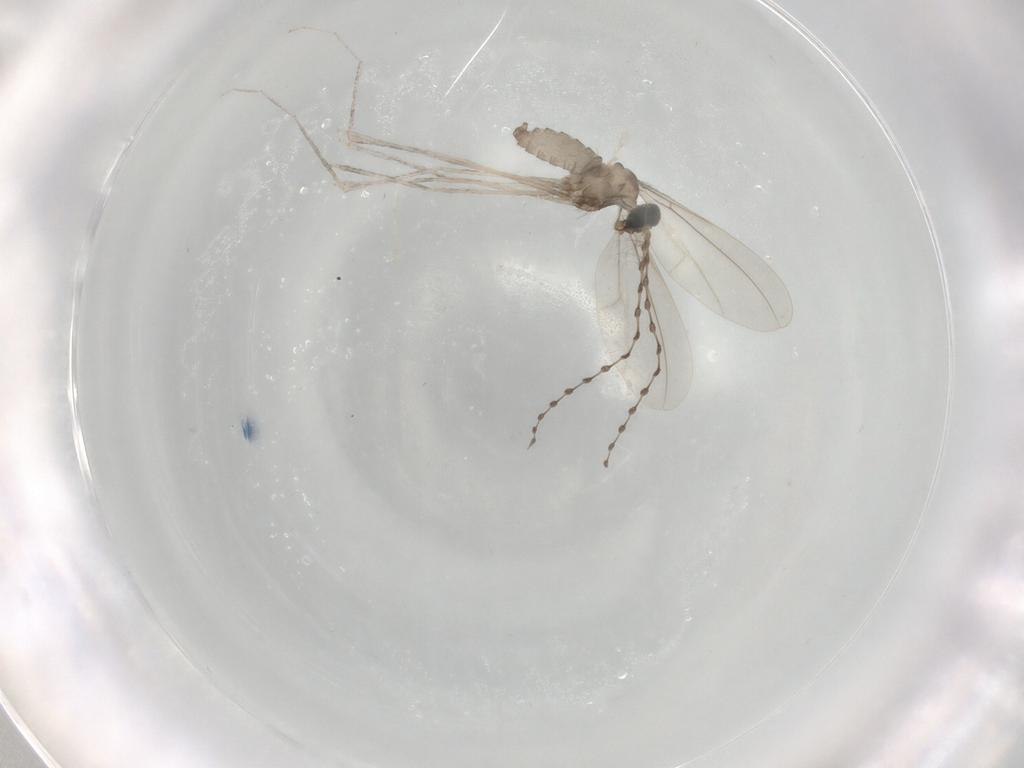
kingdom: Animalia
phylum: Arthropoda
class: Insecta
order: Diptera
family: Cecidomyiidae
